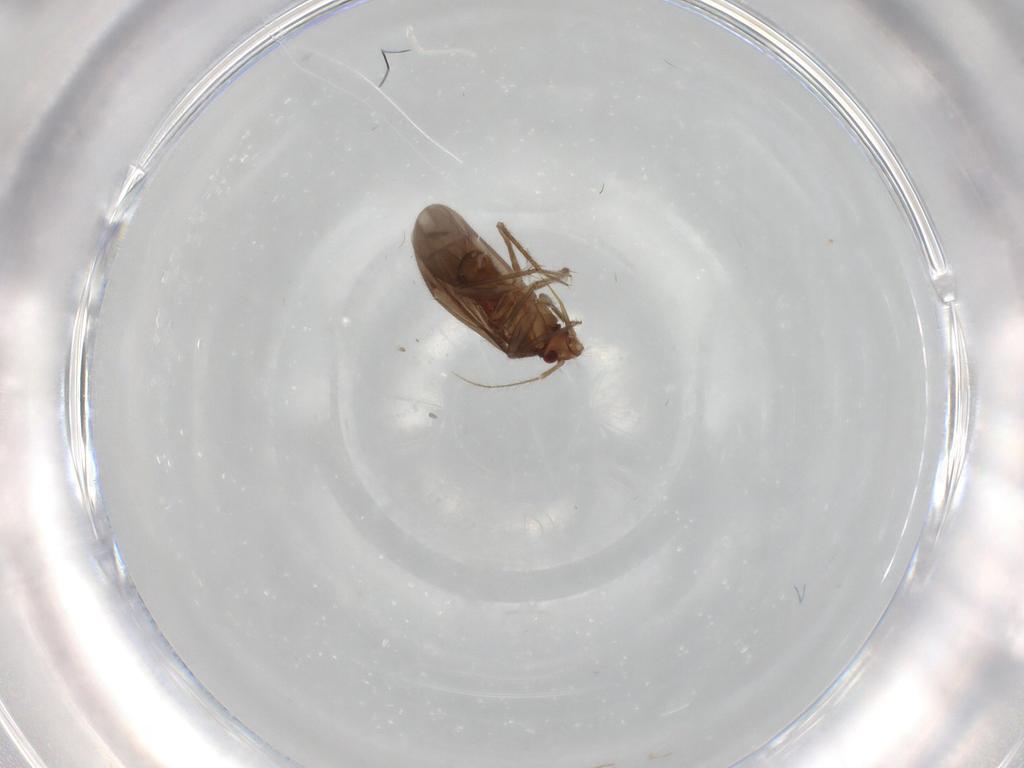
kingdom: Animalia
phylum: Arthropoda
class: Insecta
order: Hemiptera
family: Ceratocombidae
